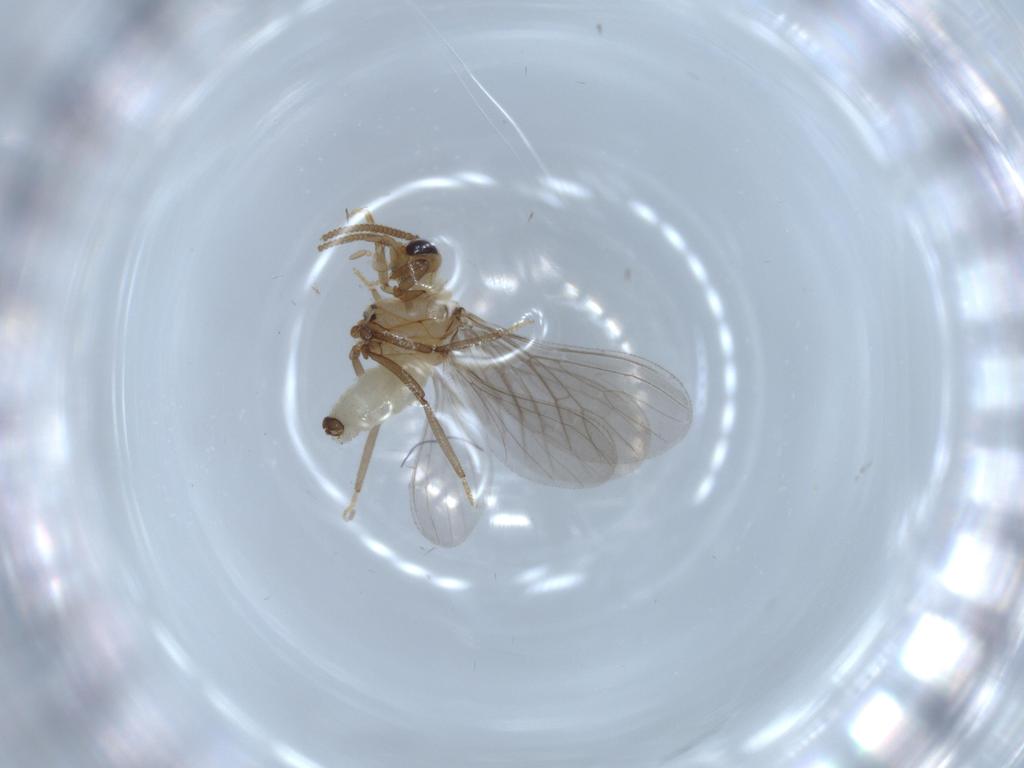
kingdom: Animalia
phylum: Arthropoda
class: Insecta
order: Neuroptera
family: Coniopterygidae
